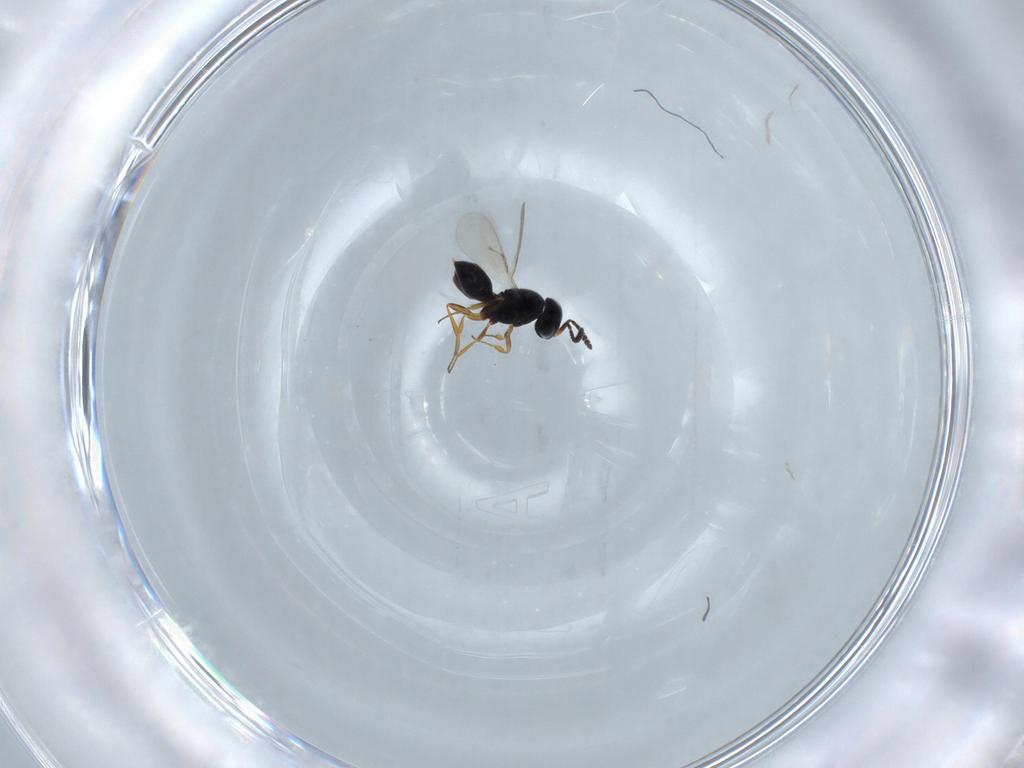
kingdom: Animalia
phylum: Arthropoda
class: Insecta
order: Hymenoptera
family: Scelionidae
